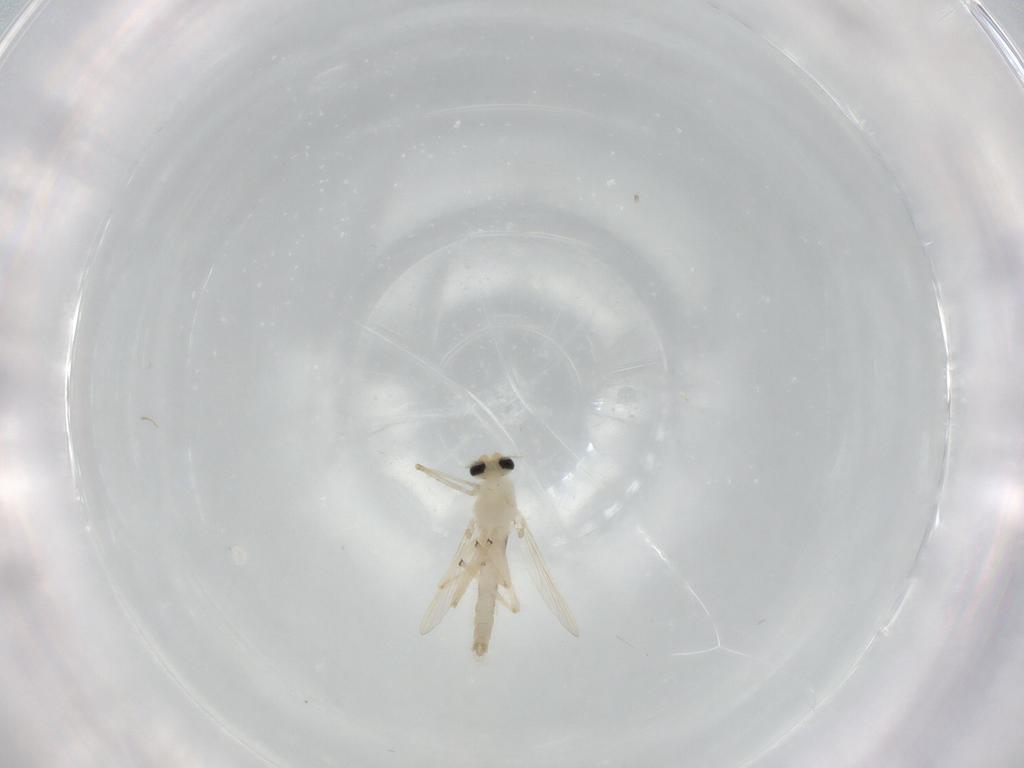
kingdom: Animalia
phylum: Arthropoda
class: Insecta
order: Diptera
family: Chironomidae
